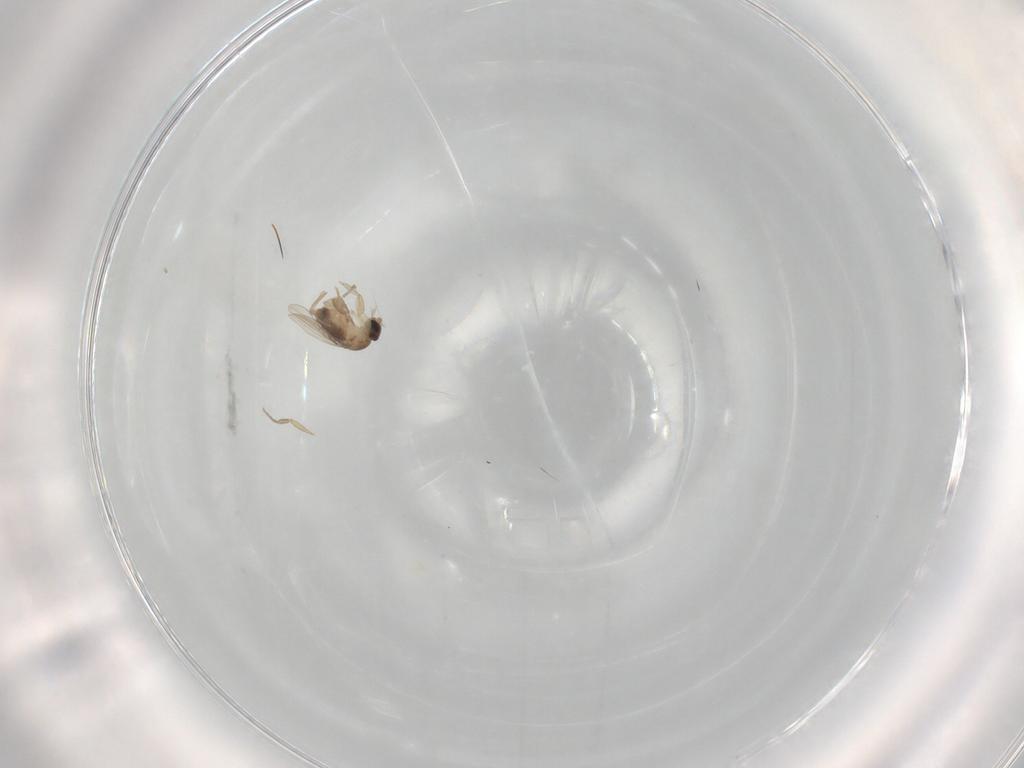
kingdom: Animalia
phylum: Arthropoda
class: Insecta
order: Diptera
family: Phoridae
